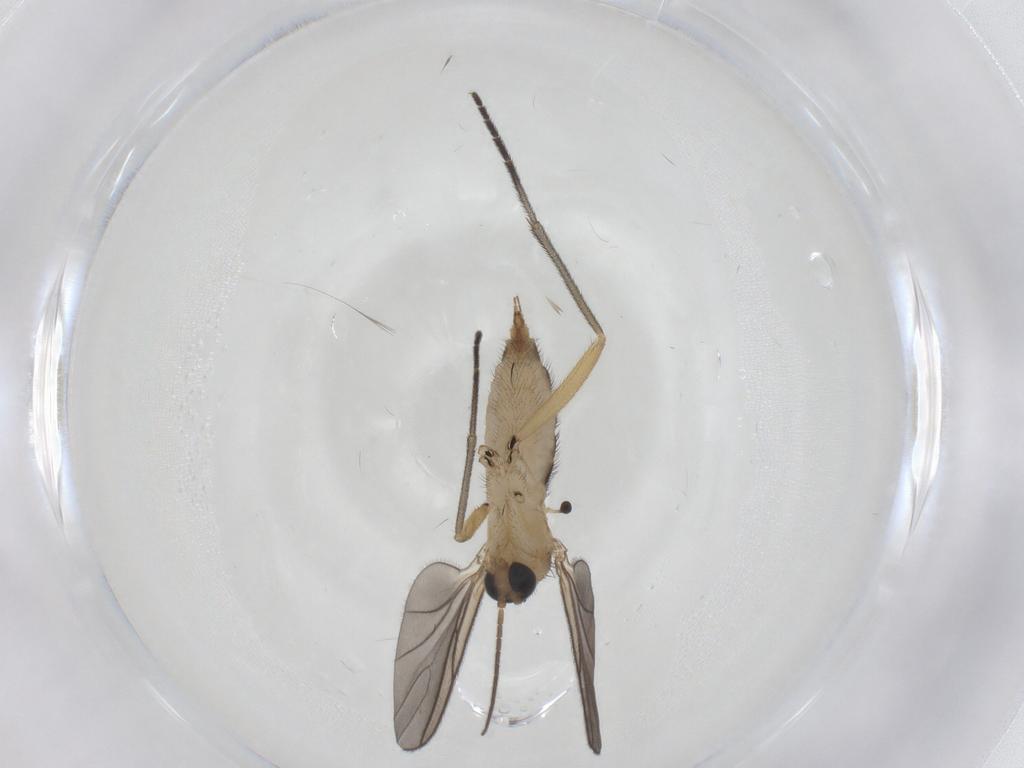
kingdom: Animalia
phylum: Arthropoda
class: Insecta
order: Diptera
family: Sciaridae
